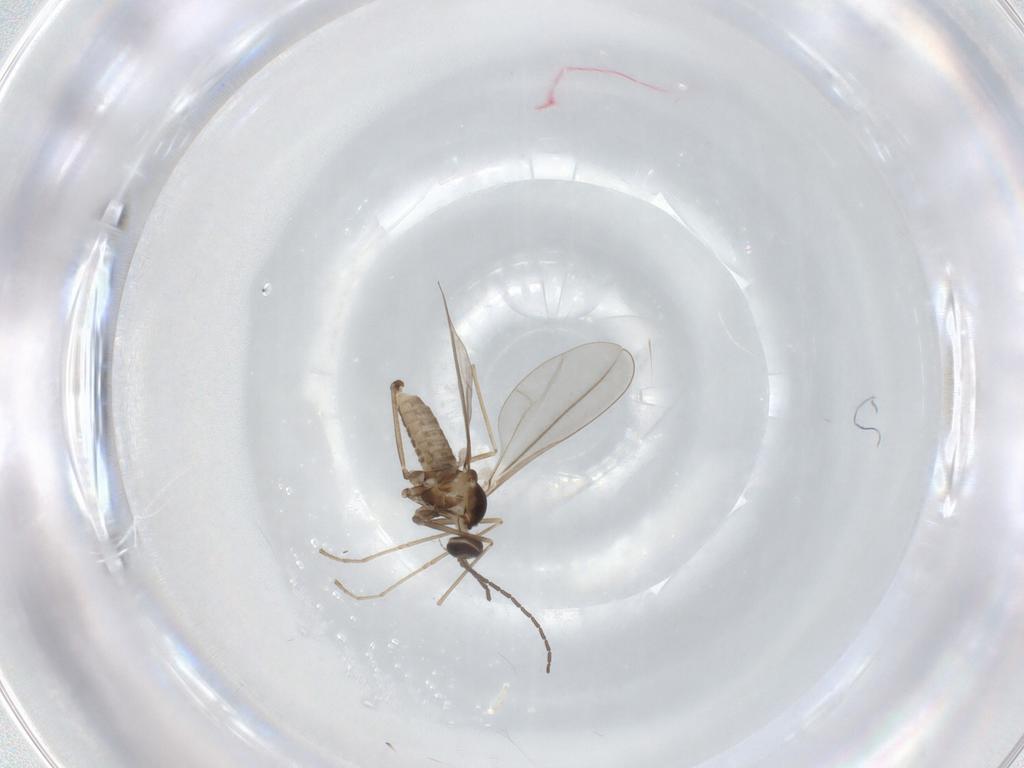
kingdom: Animalia
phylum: Arthropoda
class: Insecta
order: Diptera
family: Cecidomyiidae
